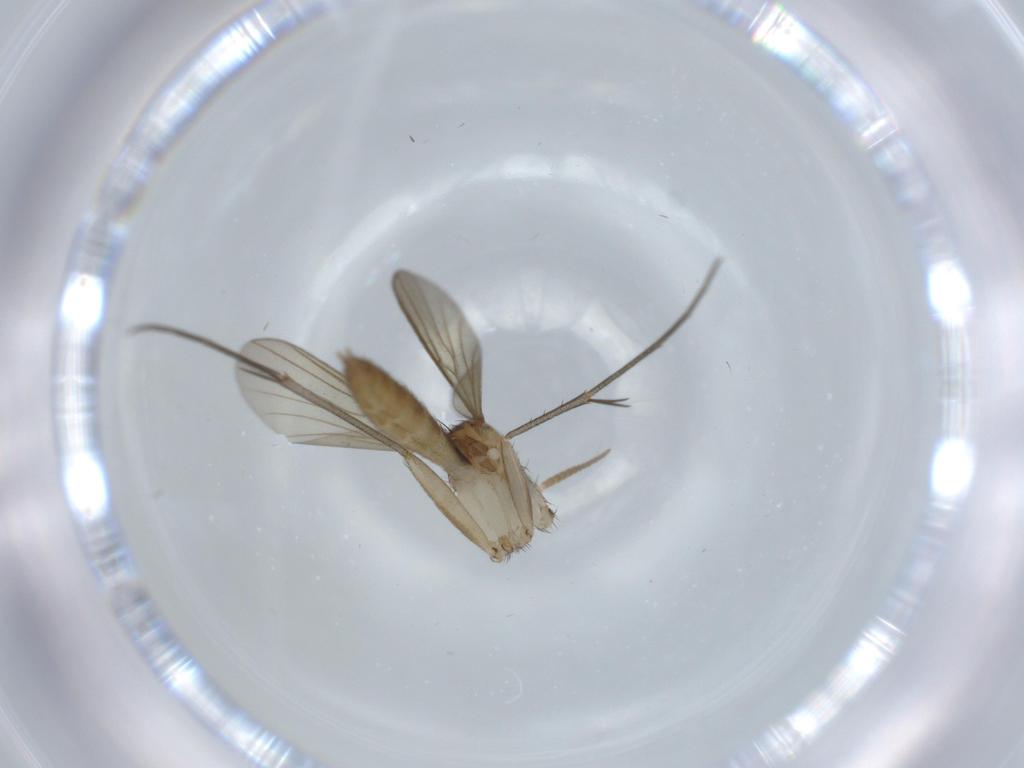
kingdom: Animalia
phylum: Arthropoda
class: Insecta
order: Diptera
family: Mycetophilidae
